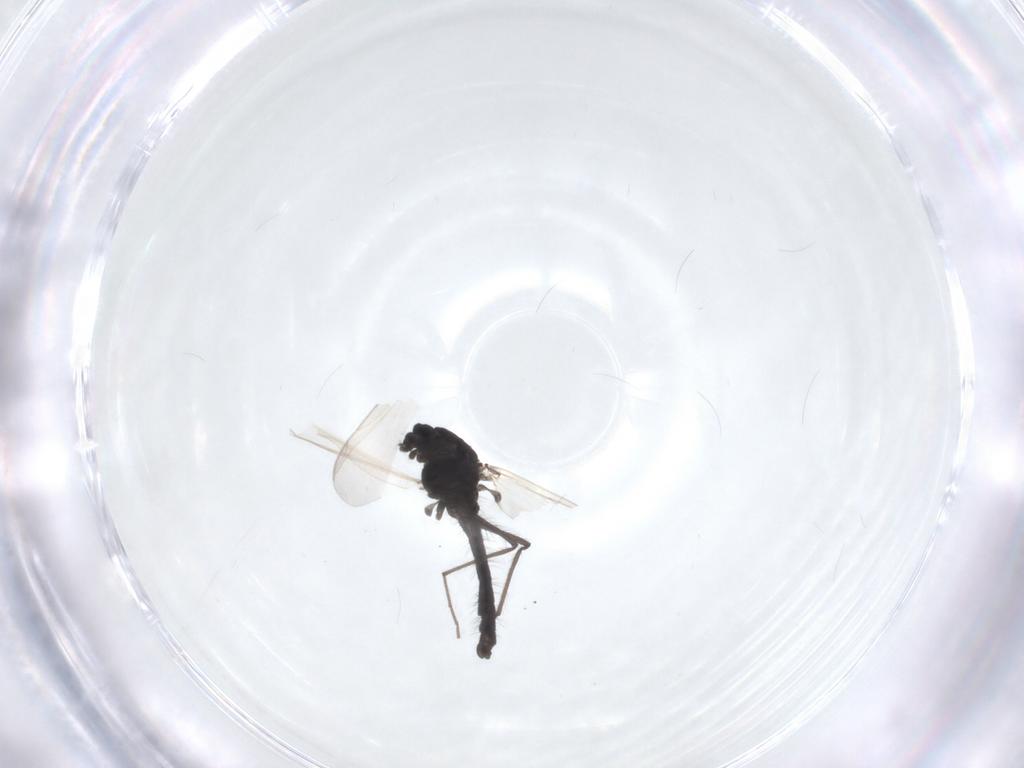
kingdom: Animalia
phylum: Arthropoda
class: Insecta
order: Diptera
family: Chironomidae
